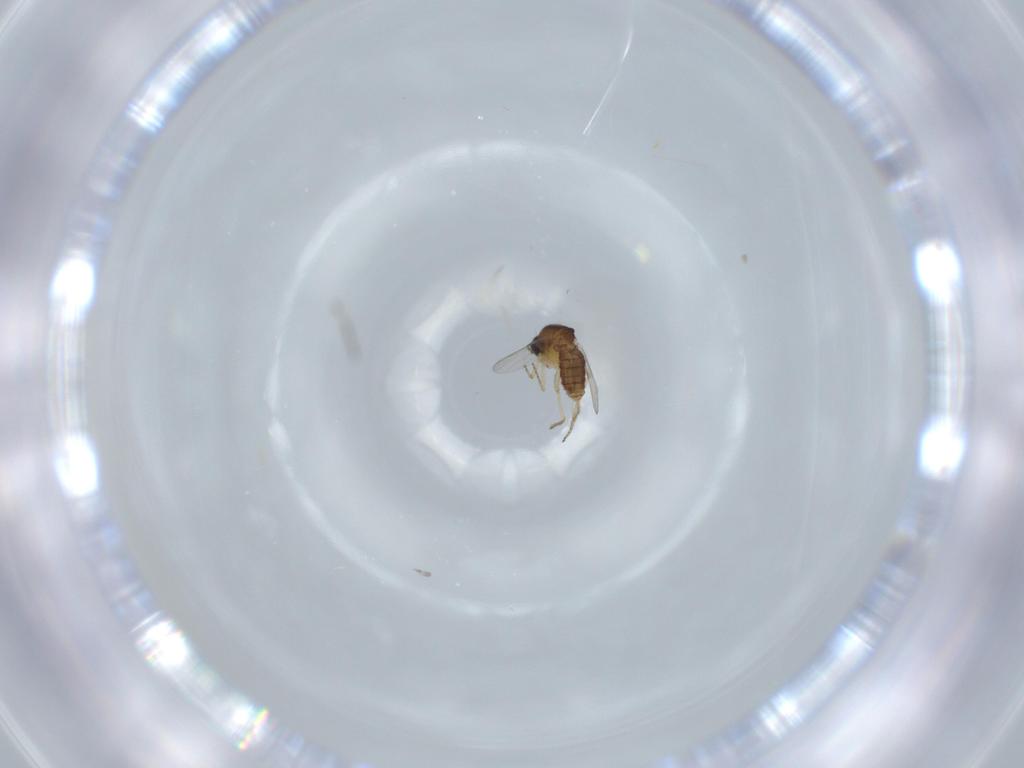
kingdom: Animalia
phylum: Arthropoda
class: Insecta
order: Diptera
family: Ceratopogonidae
